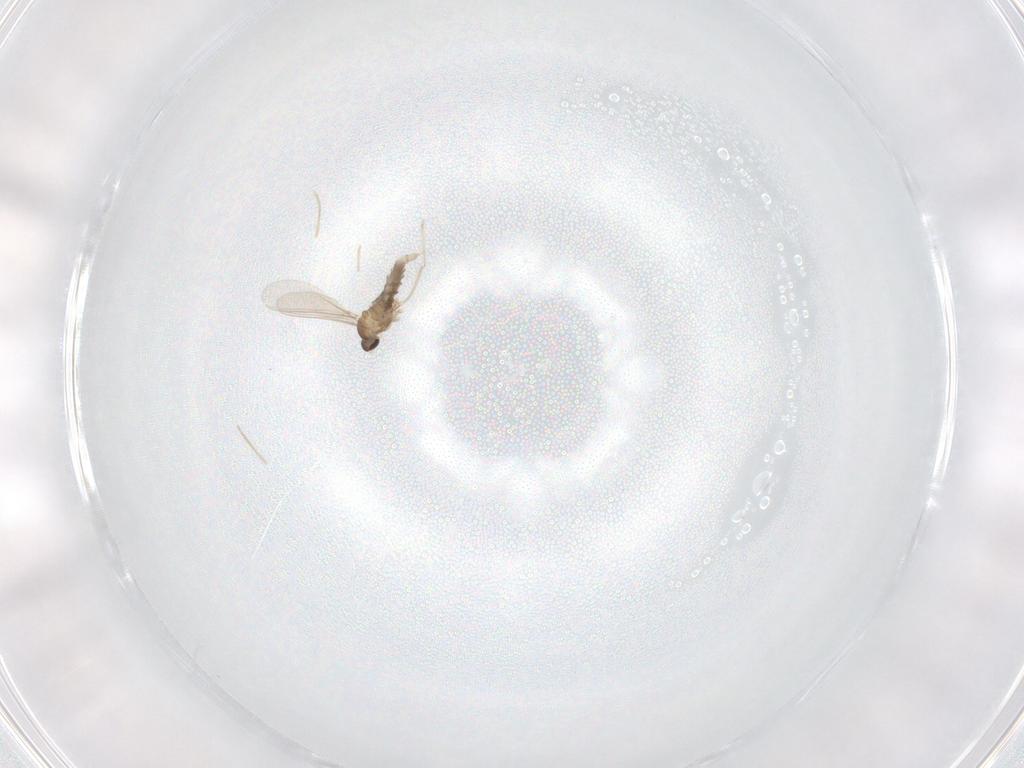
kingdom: Animalia
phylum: Arthropoda
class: Insecta
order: Diptera
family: Cecidomyiidae
